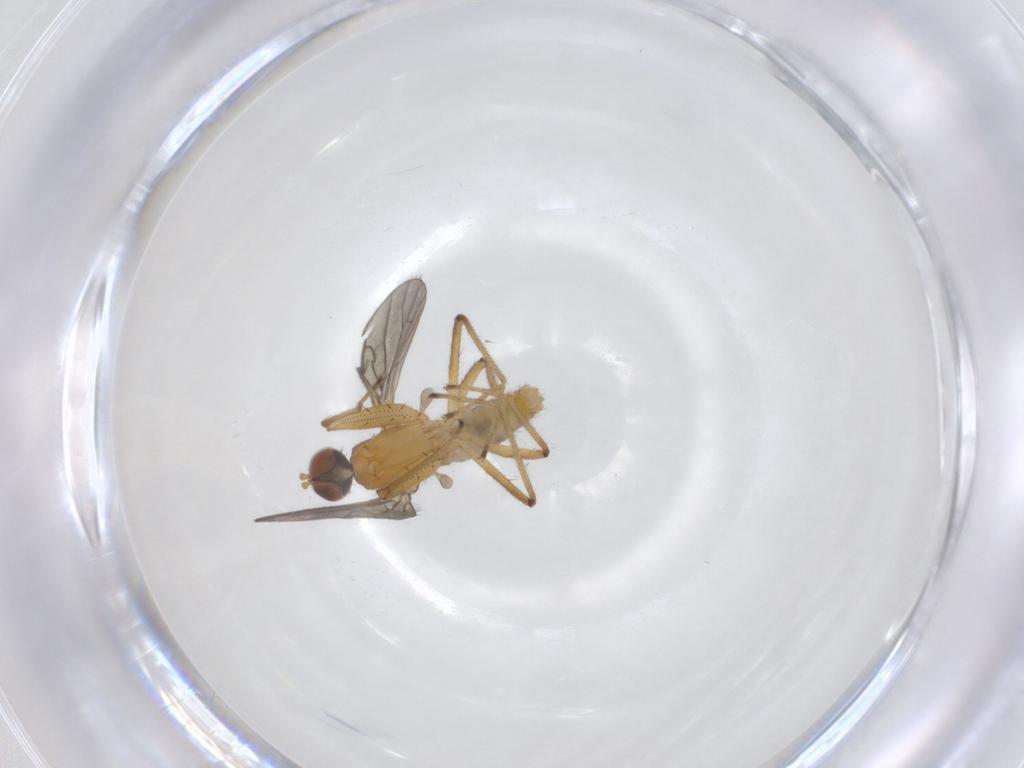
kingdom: Animalia
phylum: Arthropoda
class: Insecta
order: Diptera
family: Empididae
